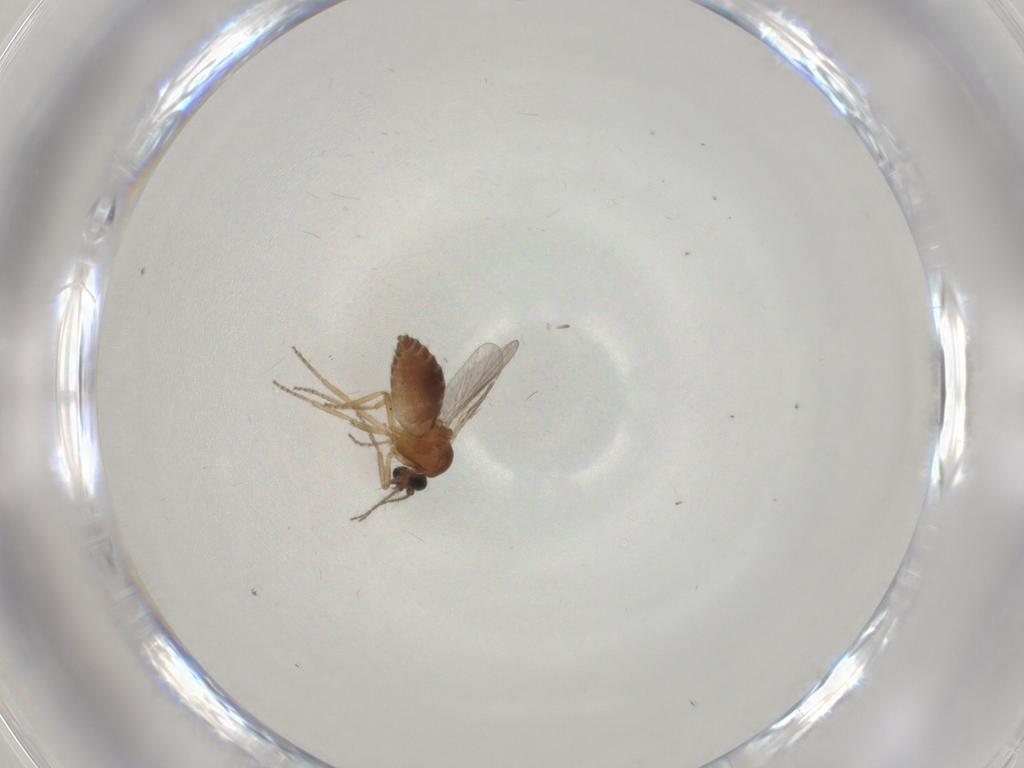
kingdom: Animalia
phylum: Arthropoda
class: Insecta
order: Diptera
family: Ceratopogonidae
